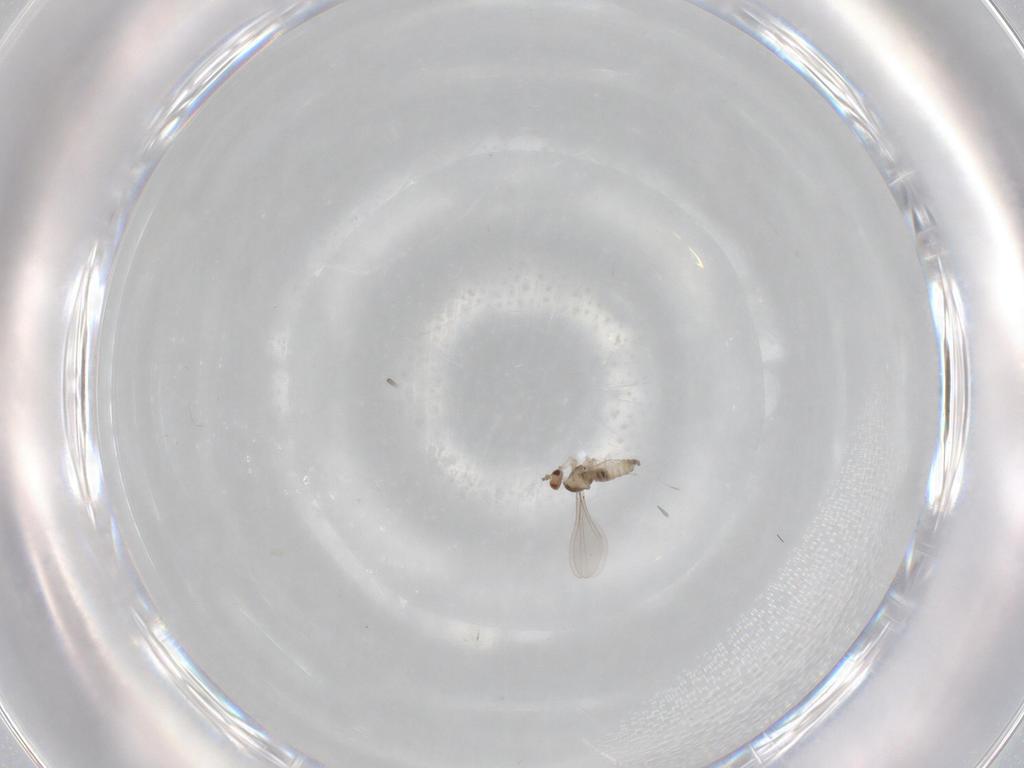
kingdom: Animalia
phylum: Arthropoda
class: Insecta
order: Diptera
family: Cecidomyiidae
